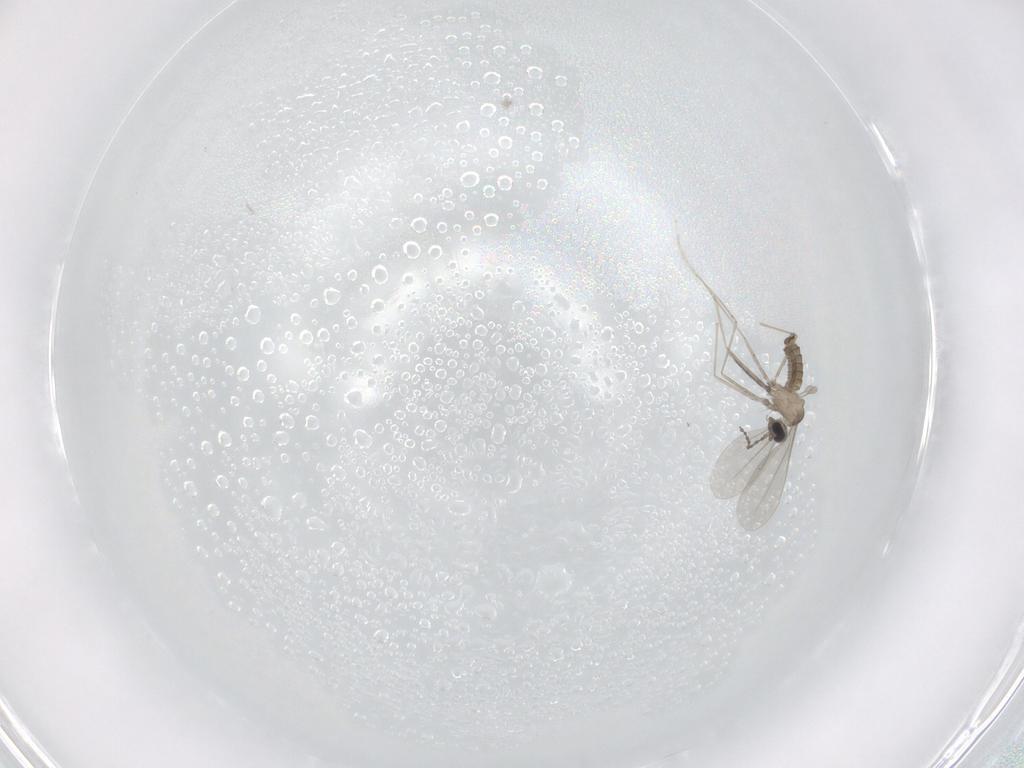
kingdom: Animalia
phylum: Arthropoda
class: Insecta
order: Diptera
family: Cecidomyiidae
